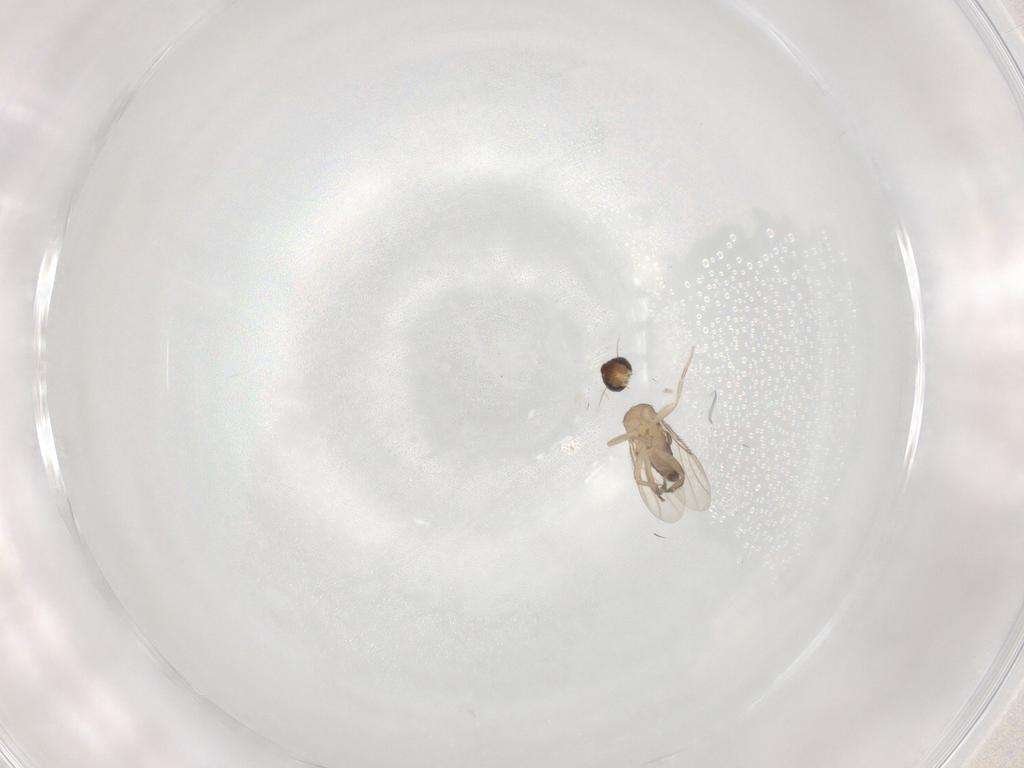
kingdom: Animalia
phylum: Arthropoda
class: Insecta
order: Diptera
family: Phoridae
